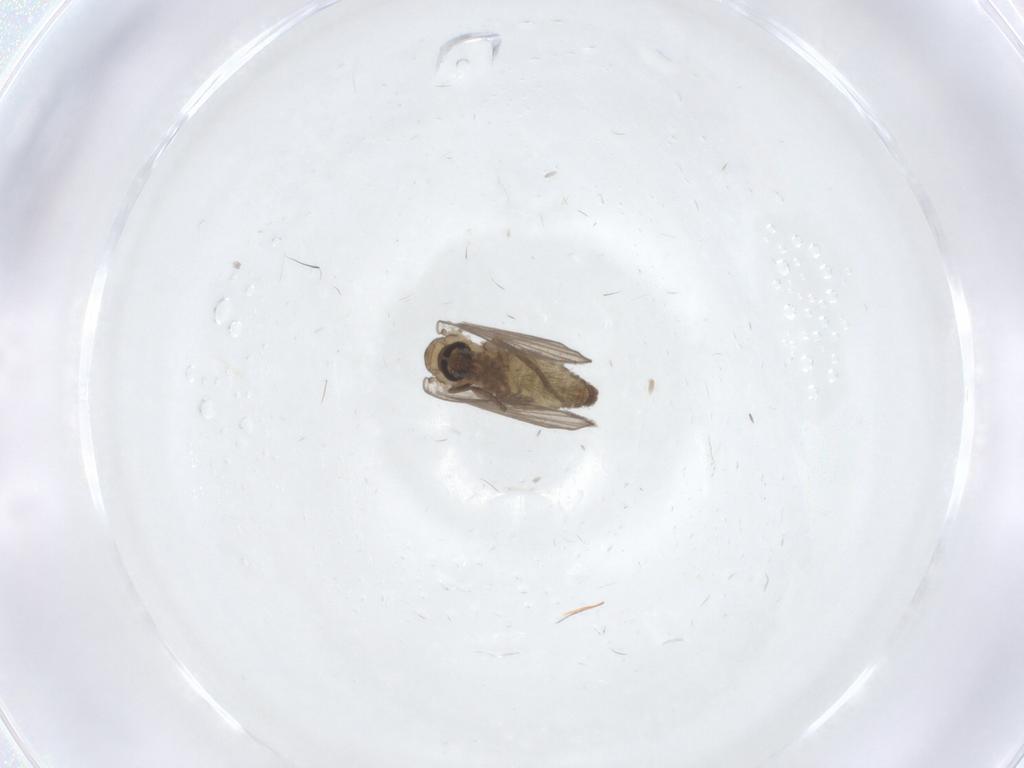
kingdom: Animalia
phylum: Arthropoda
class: Insecta
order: Diptera
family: Psychodidae
